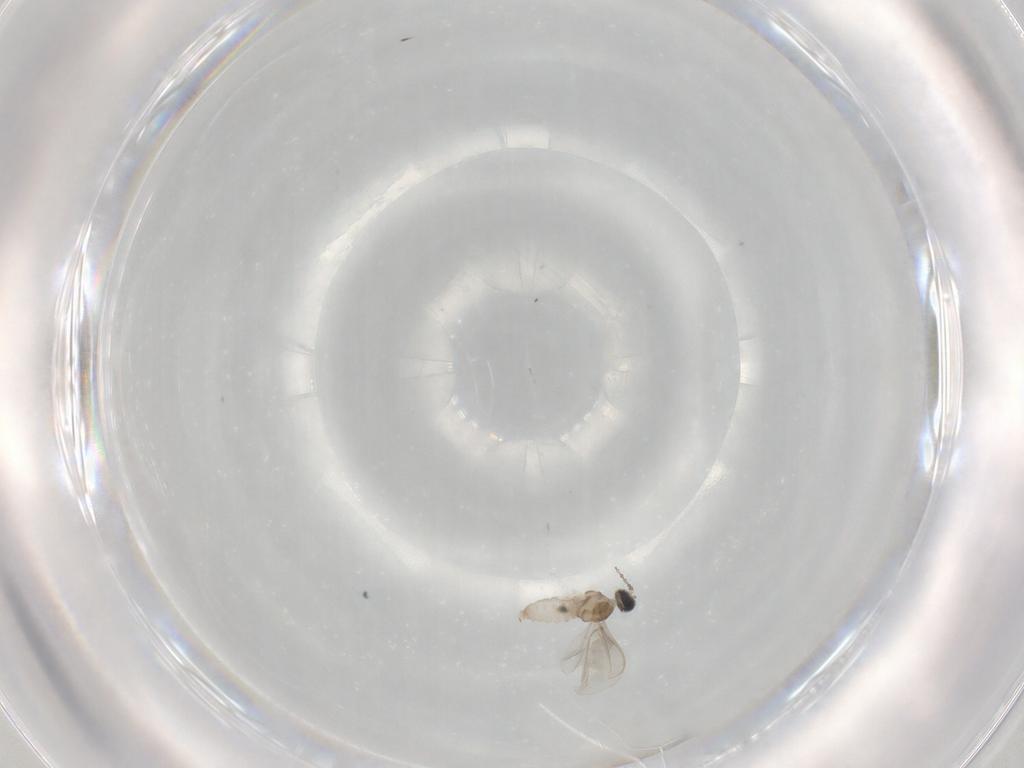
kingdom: Animalia
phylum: Arthropoda
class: Insecta
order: Diptera
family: Cecidomyiidae
